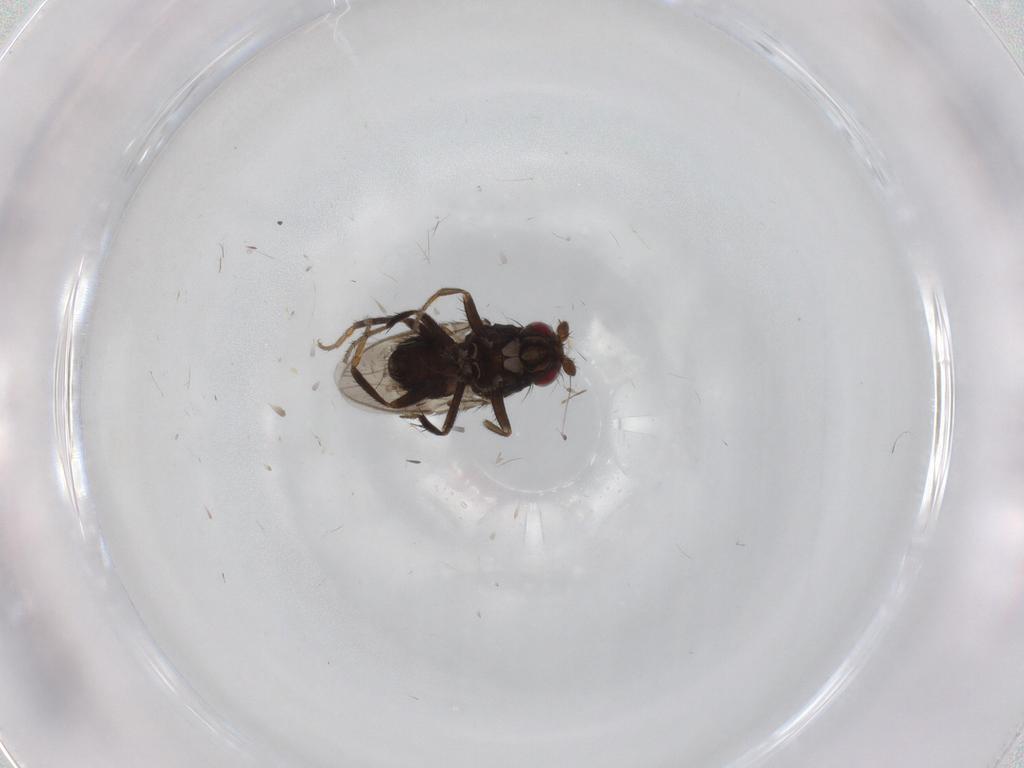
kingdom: Animalia
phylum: Arthropoda
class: Insecta
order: Diptera
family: Sphaeroceridae
